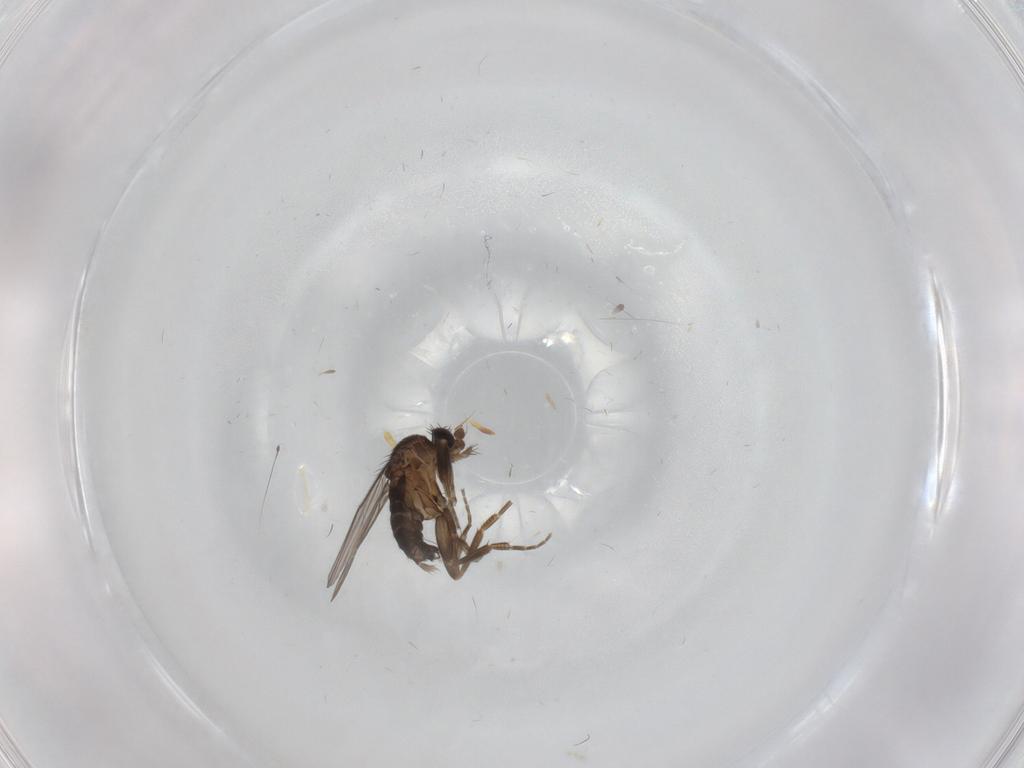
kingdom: Animalia
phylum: Arthropoda
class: Insecta
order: Diptera
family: Phoridae
